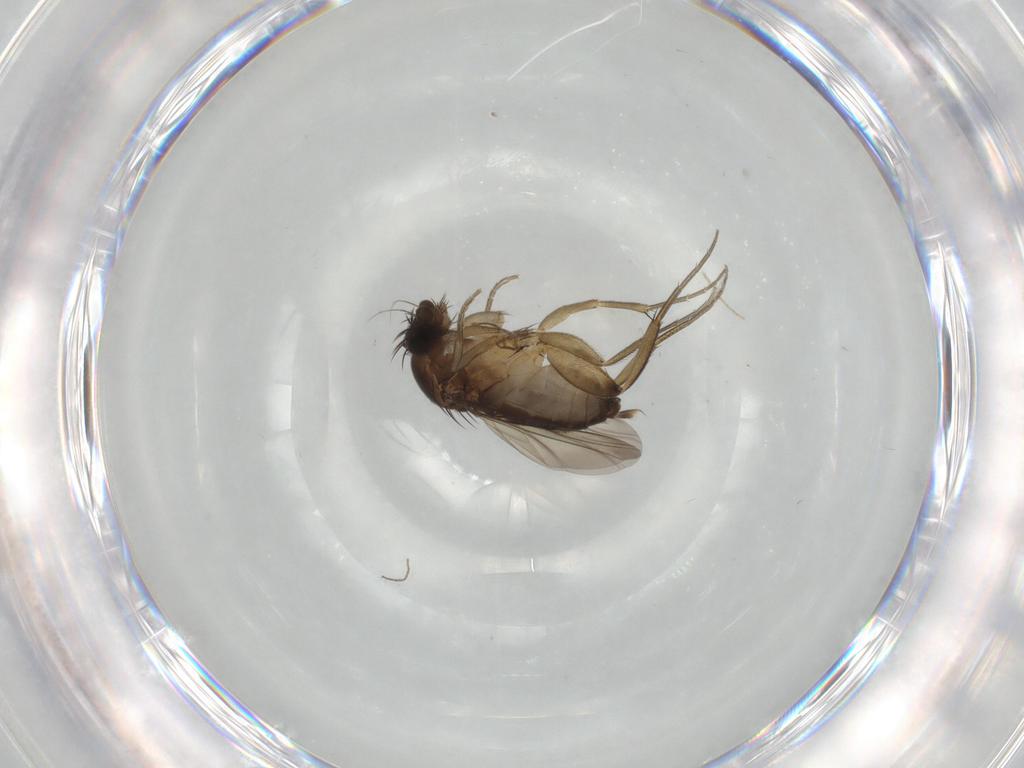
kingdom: Animalia
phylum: Arthropoda
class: Insecta
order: Diptera
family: Phoridae
